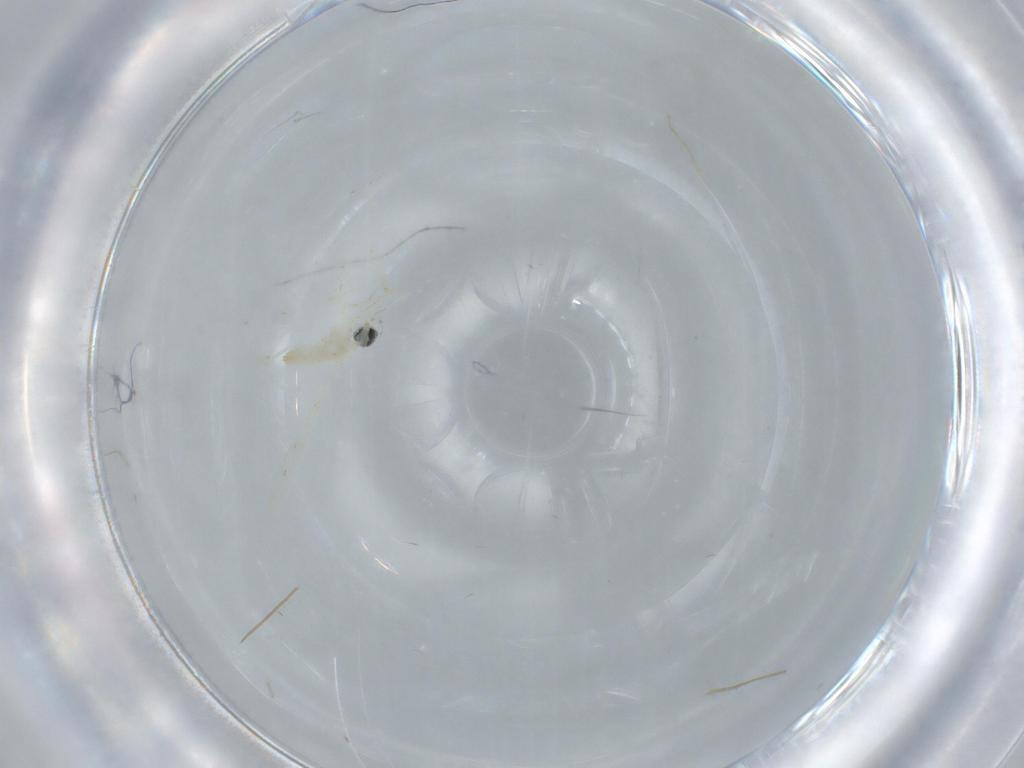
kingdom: Animalia
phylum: Arthropoda
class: Insecta
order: Diptera
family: Cecidomyiidae
